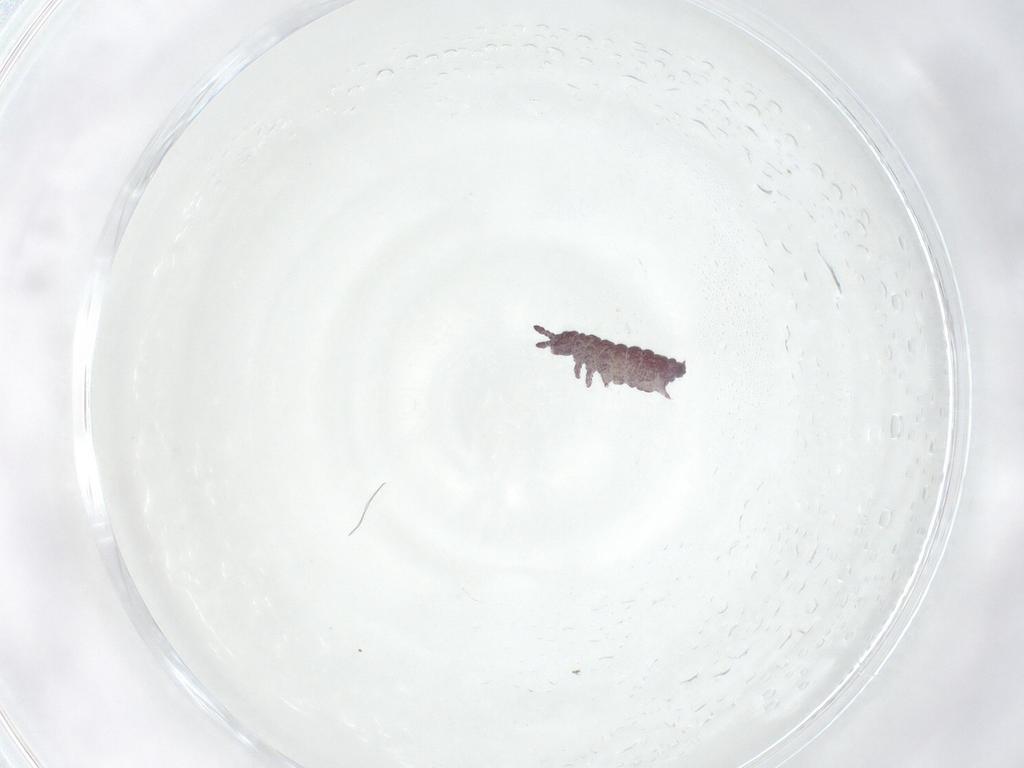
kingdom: Animalia
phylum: Arthropoda
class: Collembola
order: Poduromorpha
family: Hypogastruridae
